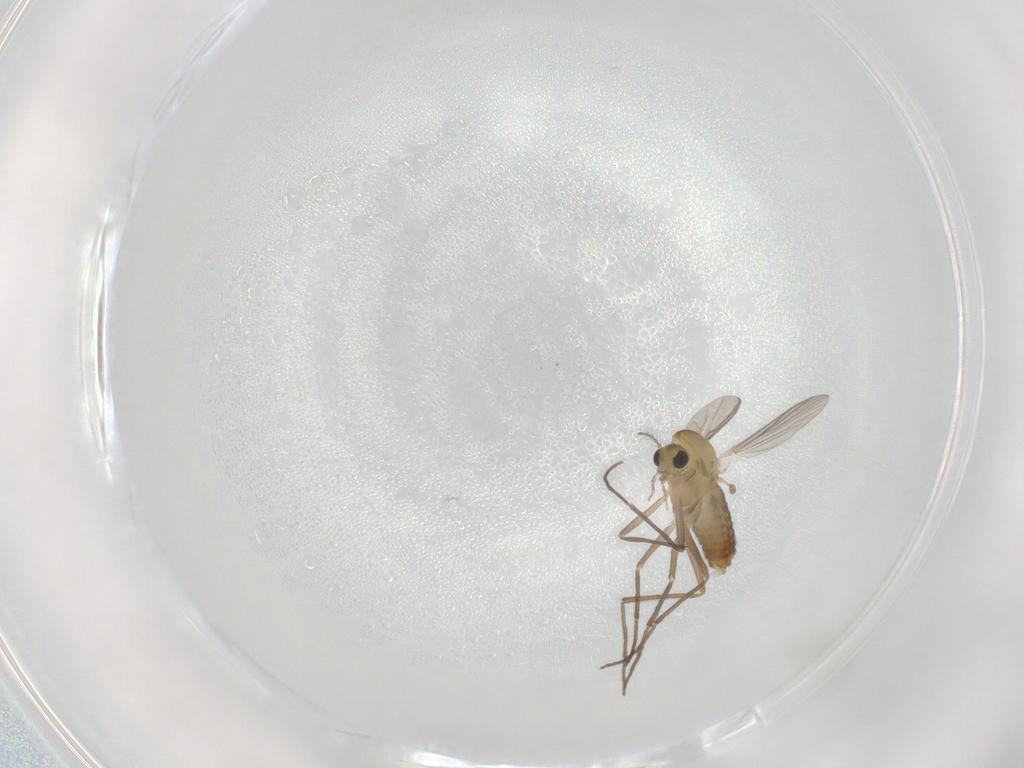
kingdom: Animalia
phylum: Arthropoda
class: Insecta
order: Diptera
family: Chironomidae
